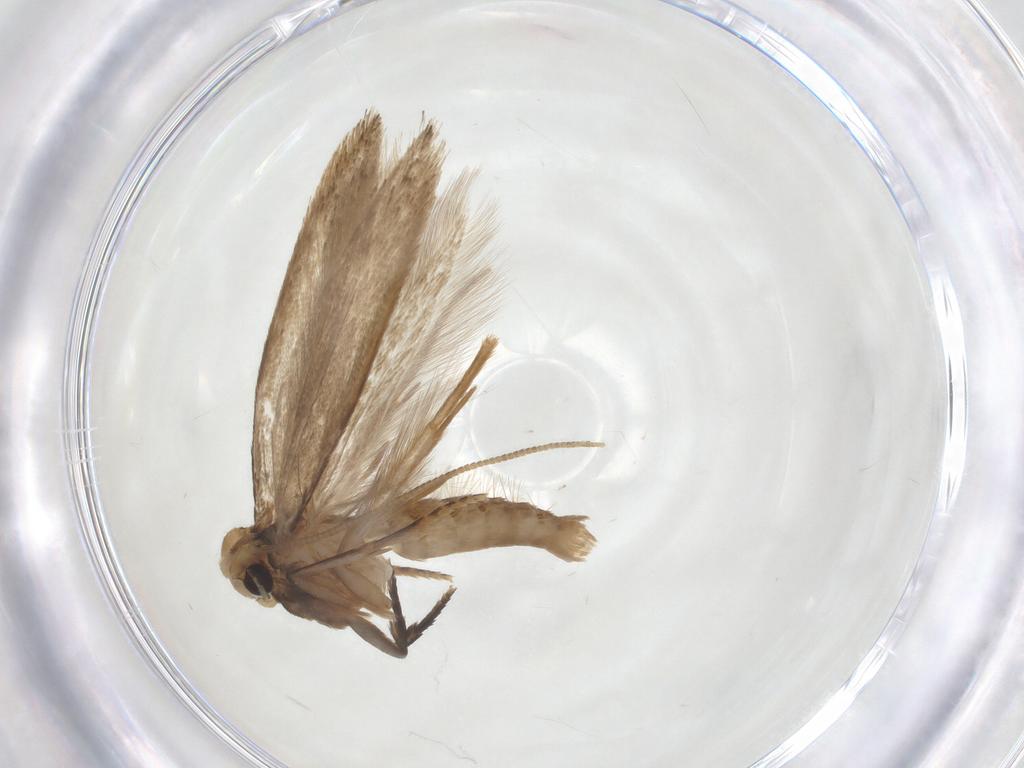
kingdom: Animalia
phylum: Arthropoda
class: Insecta
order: Lepidoptera
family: Tineidae
